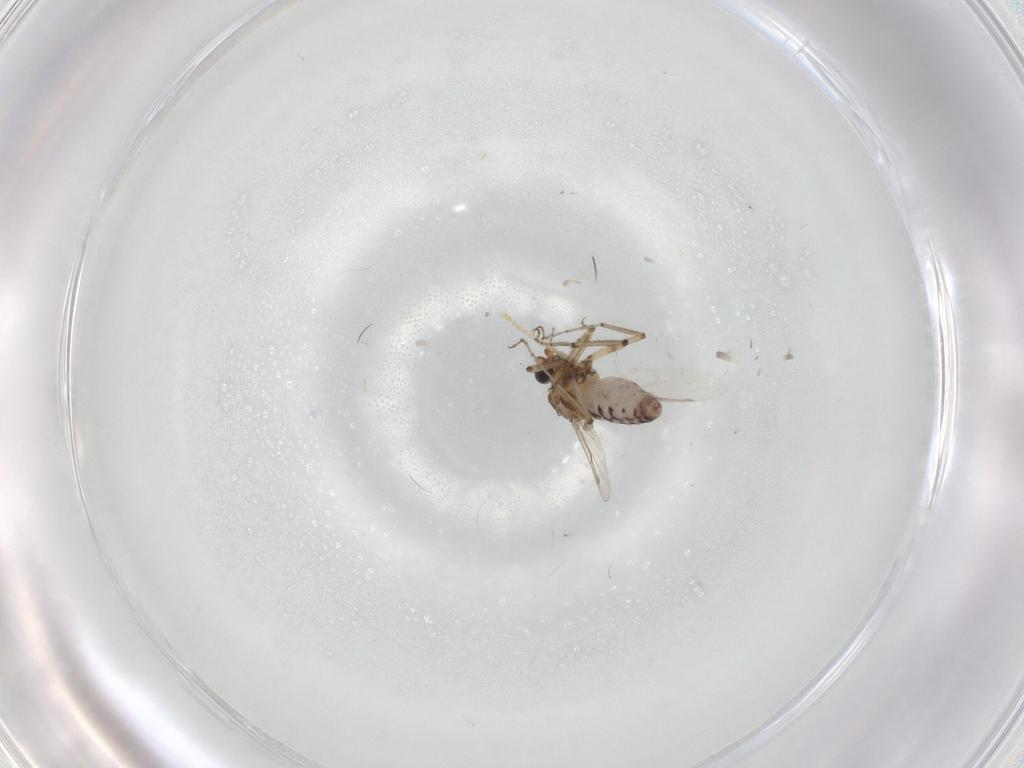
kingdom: Animalia
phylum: Arthropoda
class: Insecta
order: Diptera
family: Ceratopogonidae
